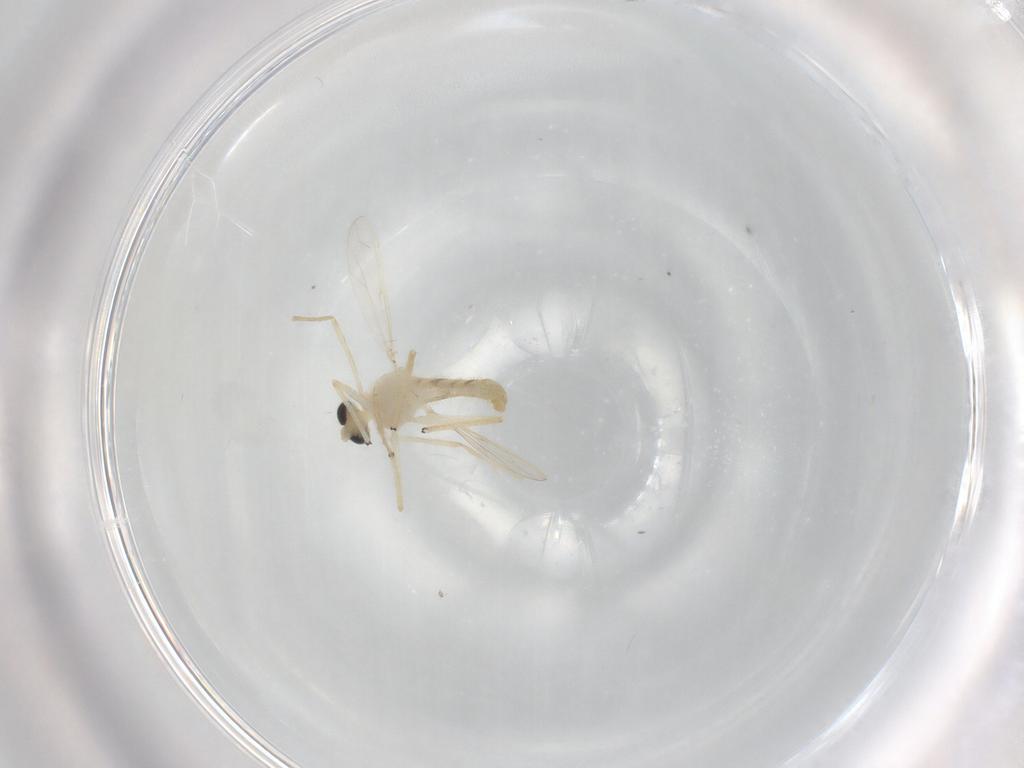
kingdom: Animalia
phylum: Arthropoda
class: Insecta
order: Diptera
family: Chironomidae
